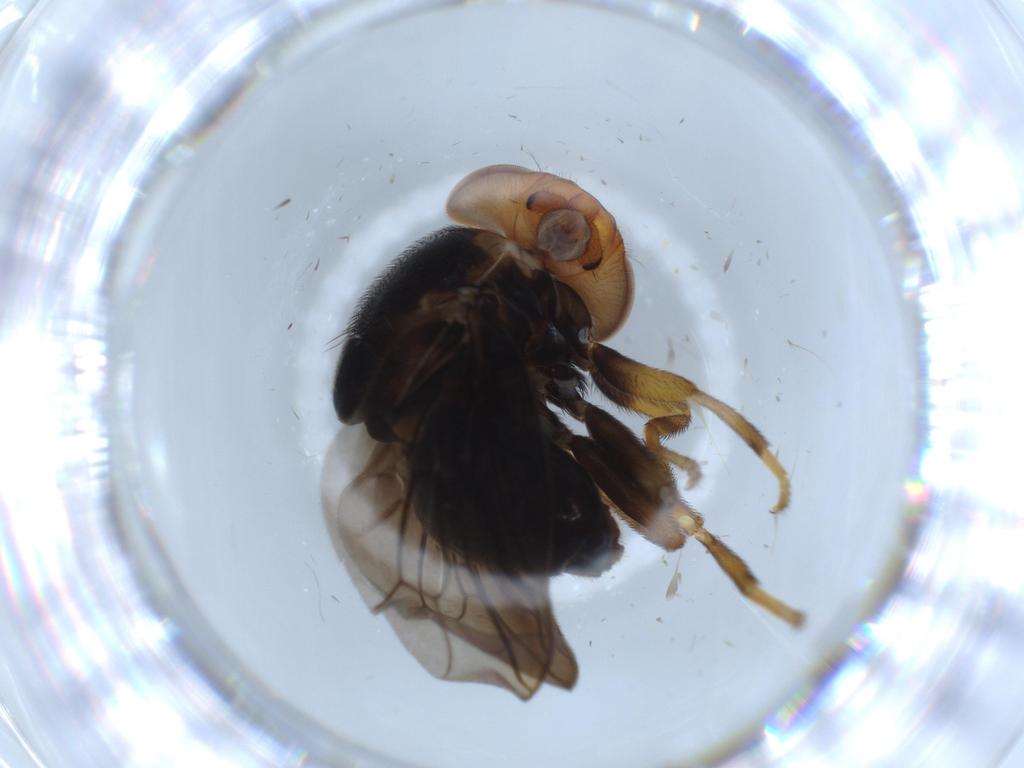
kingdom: Animalia
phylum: Arthropoda
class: Insecta
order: Diptera
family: Ulidiidae
